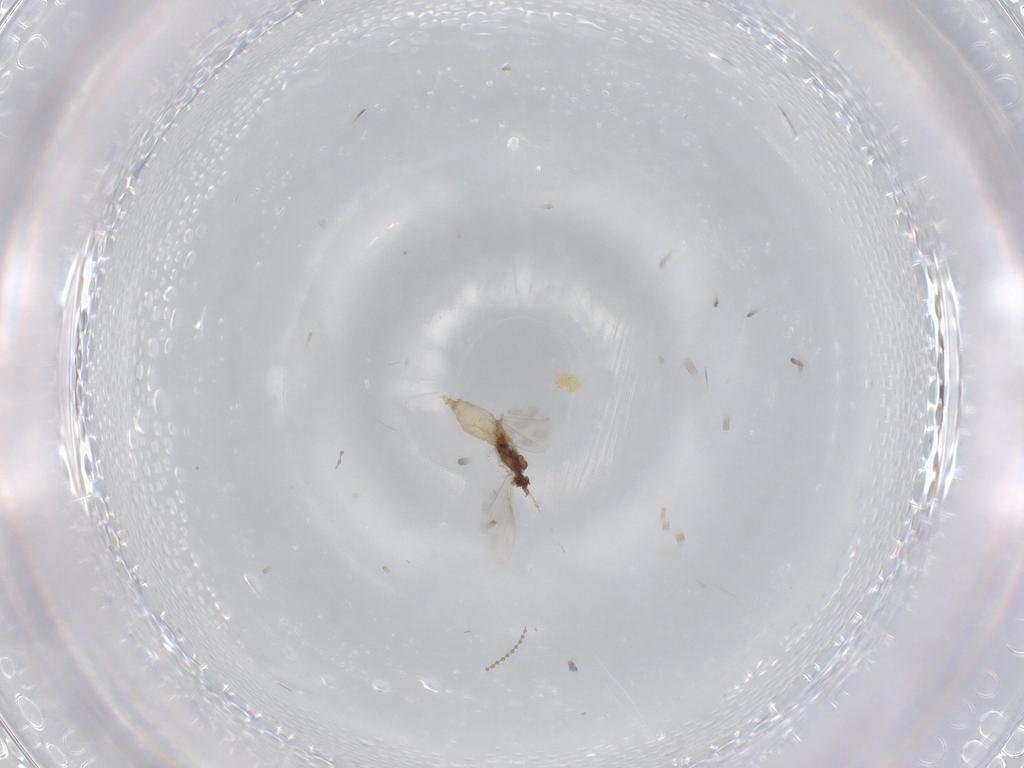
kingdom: Animalia
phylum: Arthropoda
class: Insecta
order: Diptera
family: Cecidomyiidae
